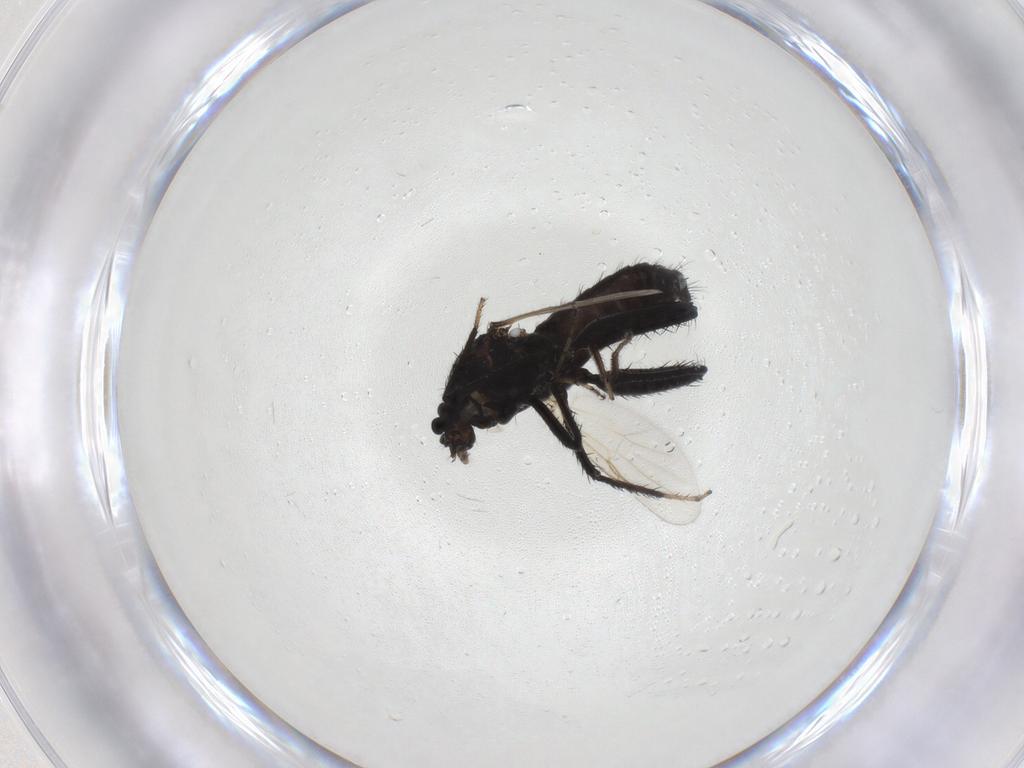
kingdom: Animalia
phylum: Arthropoda
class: Insecta
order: Diptera
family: Ceratopogonidae
